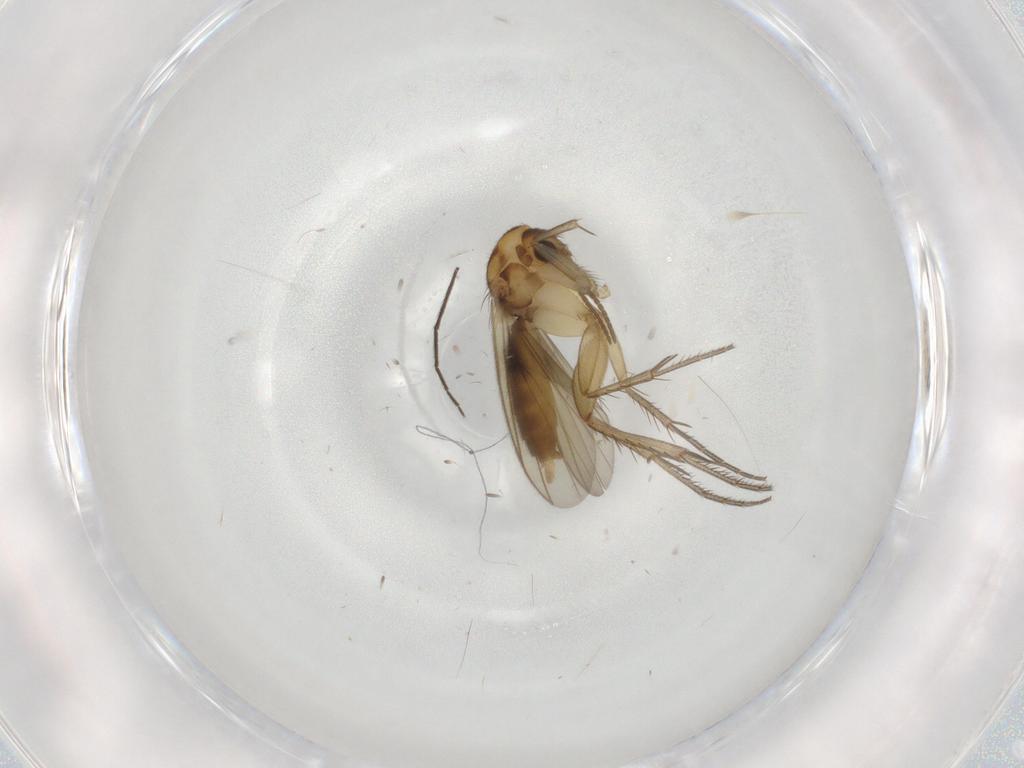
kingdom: Animalia
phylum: Arthropoda
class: Insecta
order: Diptera
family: Chironomidae
